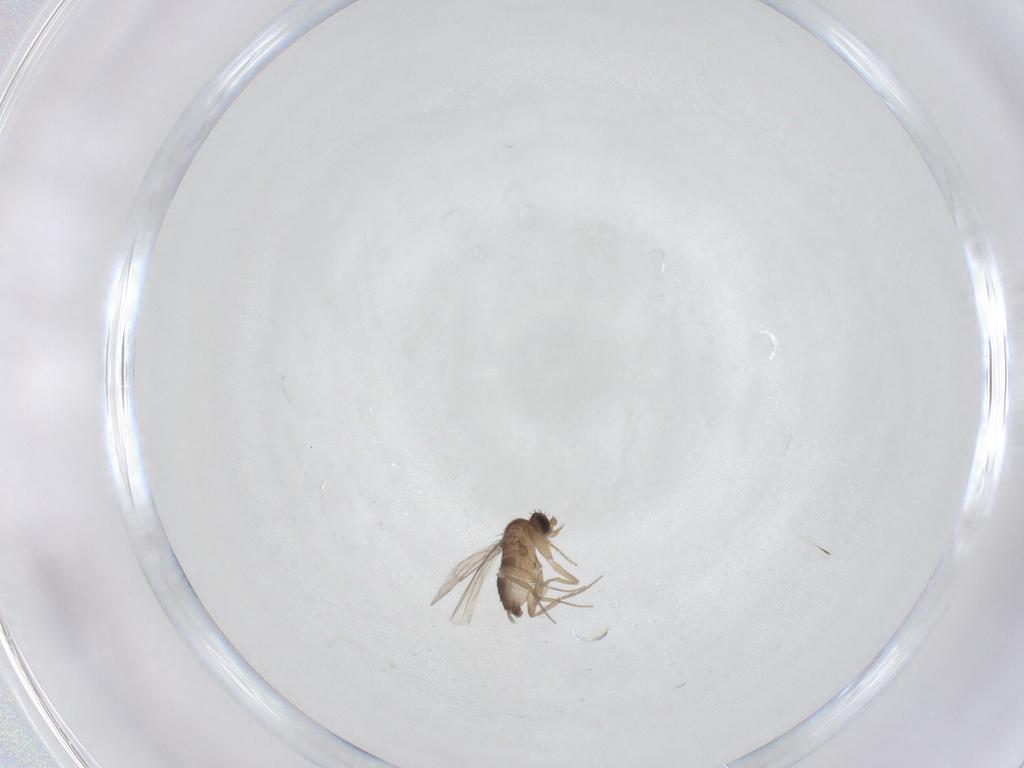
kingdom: Animalia
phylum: Arthropoda
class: Insecta
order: Diptera
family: Phoridae
